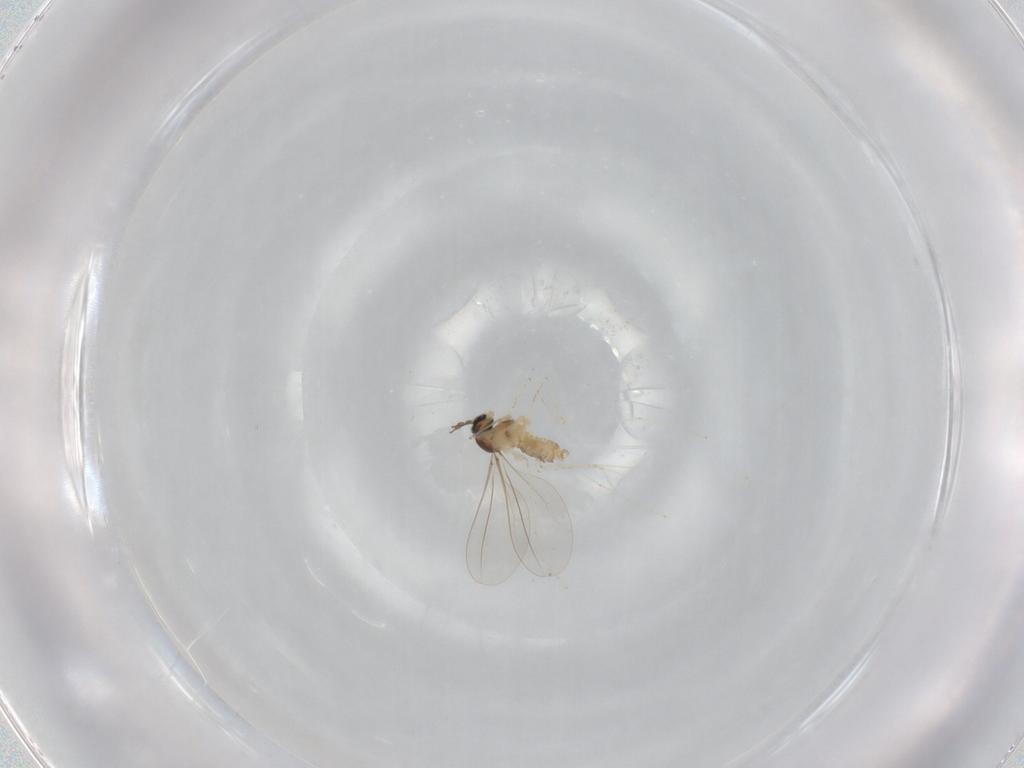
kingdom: Animalia
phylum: Arthropoda
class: Insecta
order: Diptera
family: Cecidomyiidae
